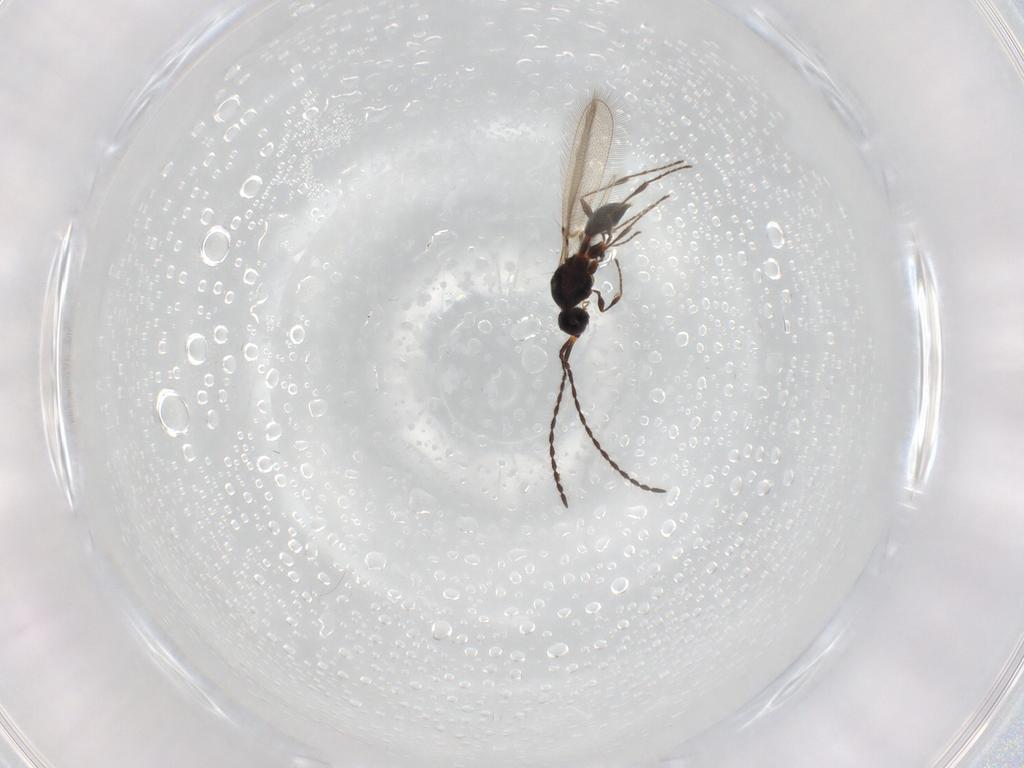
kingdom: Animalia
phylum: Arthropoda
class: Insecta
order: Hymenoptera
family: Diapriidae
